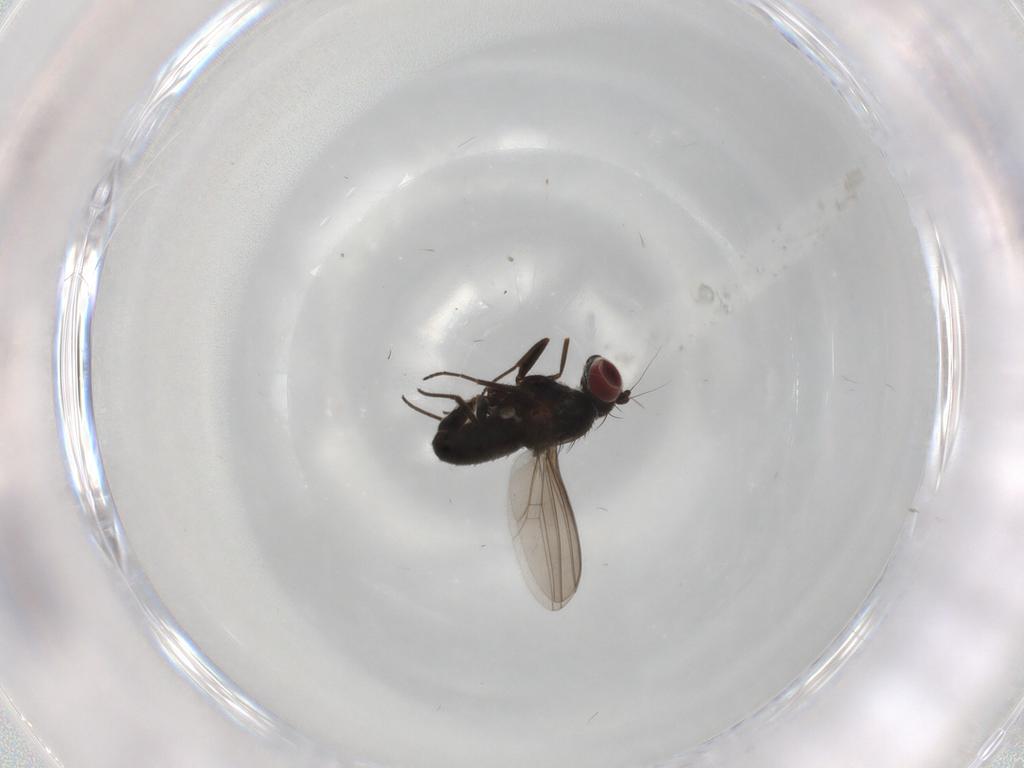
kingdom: Animalia
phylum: Arthropoda
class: Insecta
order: Diptera
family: Dolichopodidae
